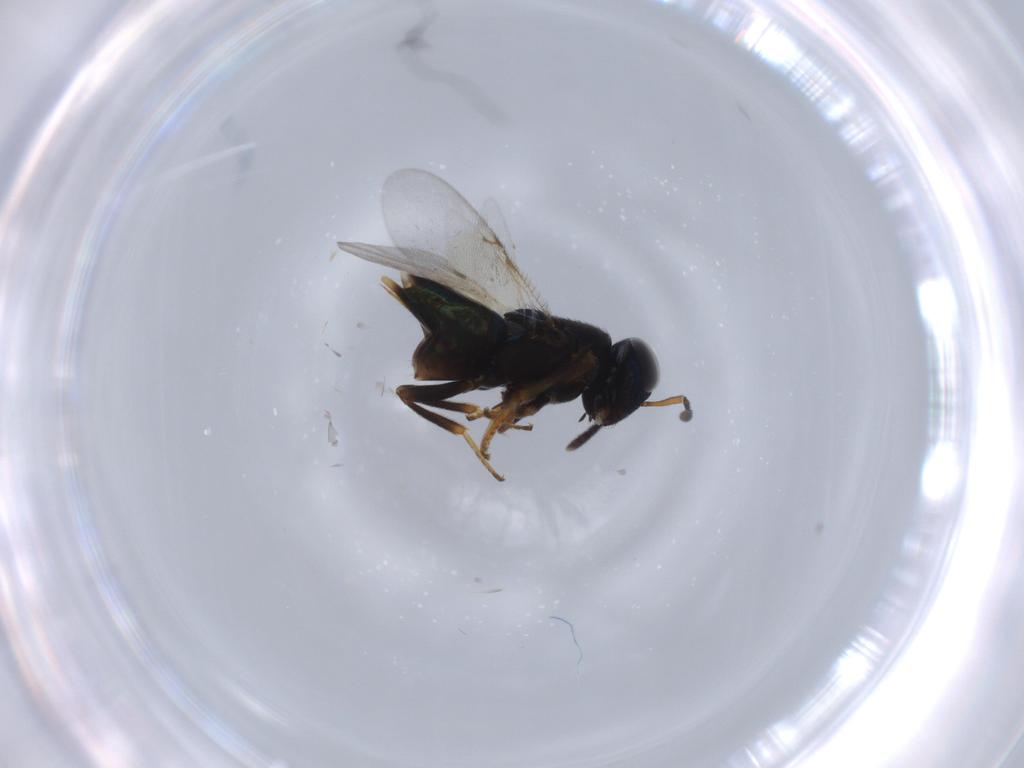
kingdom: Animalia
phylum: Arthropoda
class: Insecta
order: Hymenoptera
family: Encyrtidae
